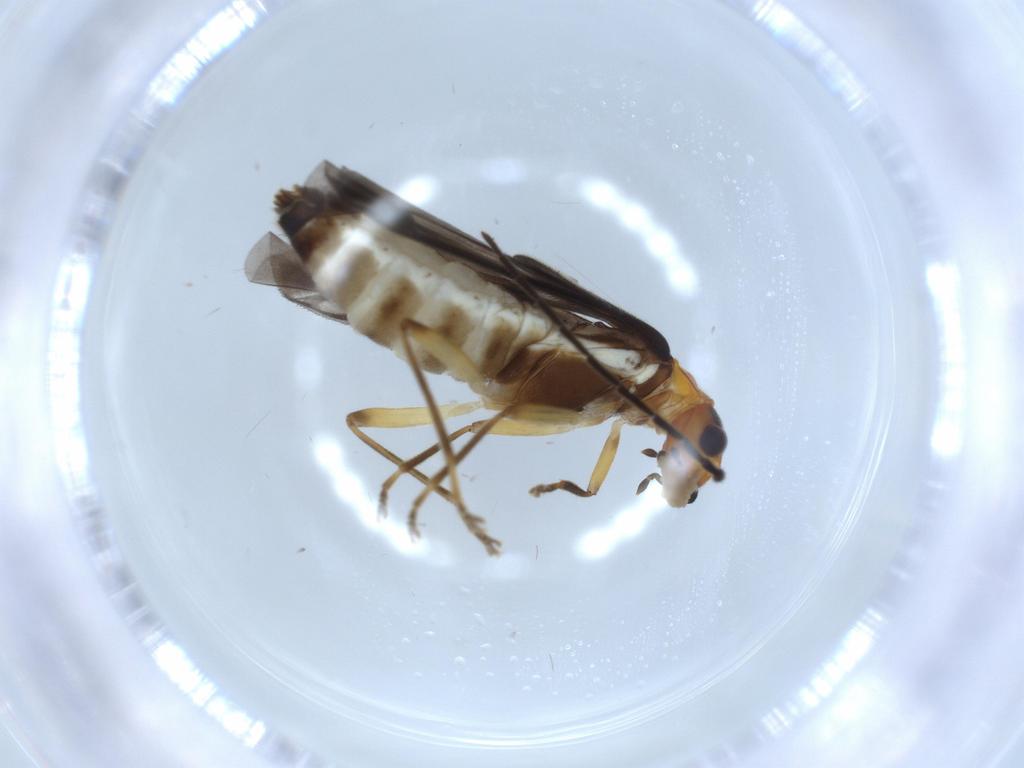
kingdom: Animalia
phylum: Arthropoda
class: Insecta
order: Coleoptera
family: Cantharidae
